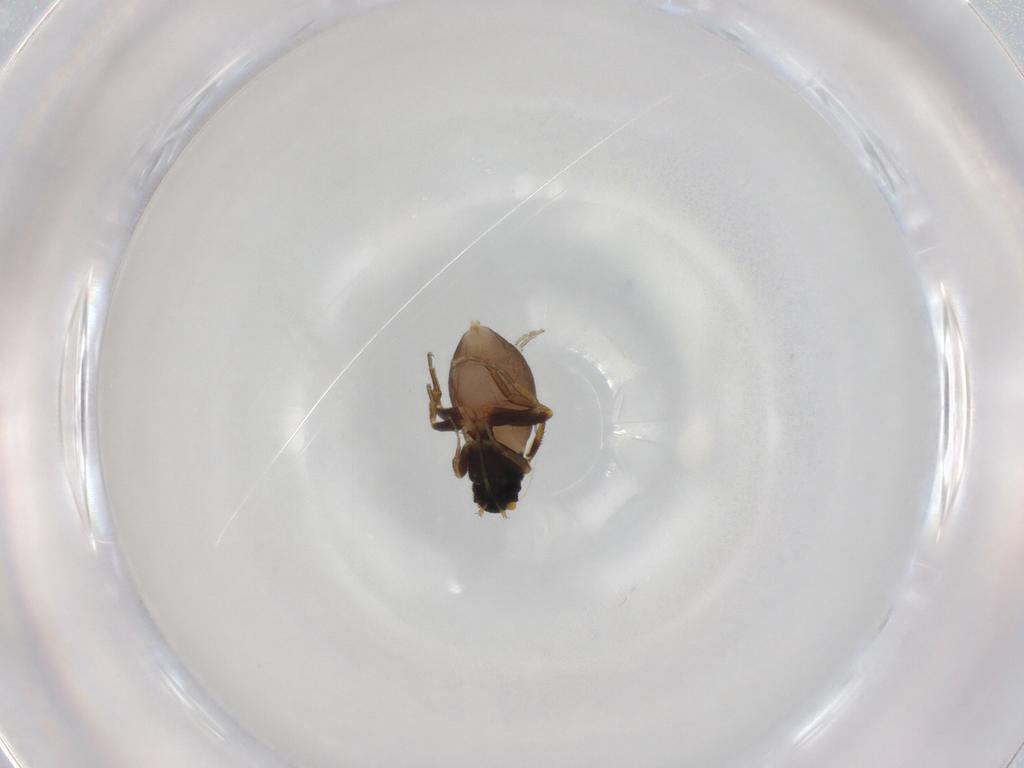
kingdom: Animalia
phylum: Arthropoda
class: Insecta
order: Diptera
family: Phoridae
